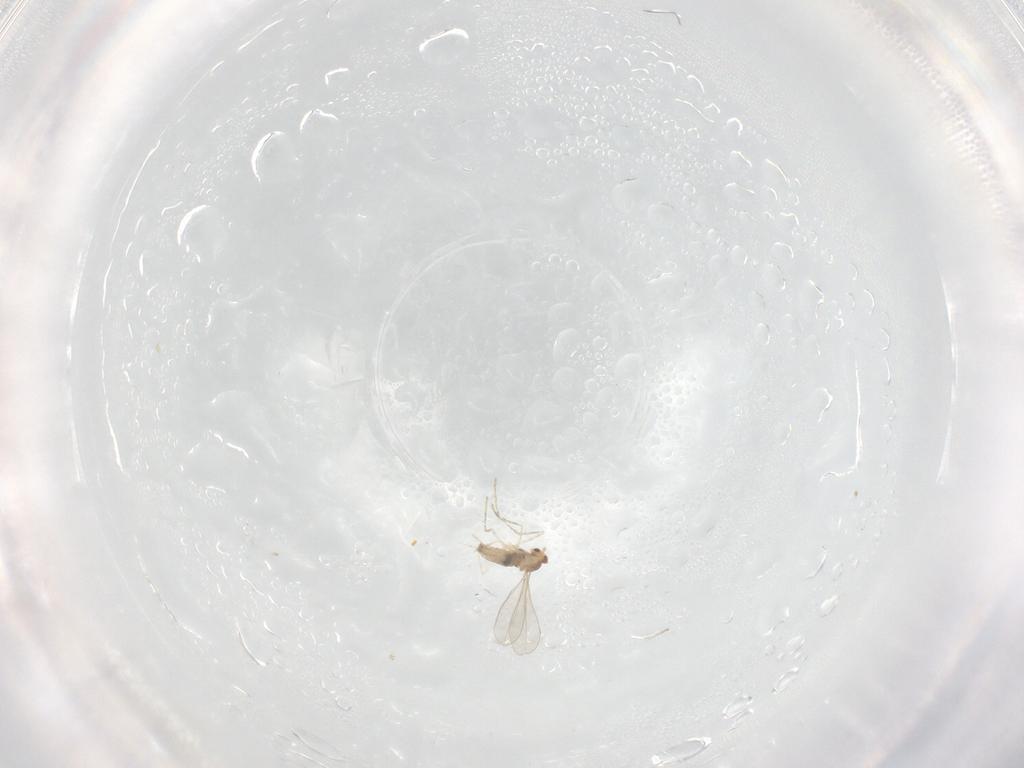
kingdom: Animalia
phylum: Arthropoda
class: Insecta
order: Diptera
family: Cecidomyiidae
